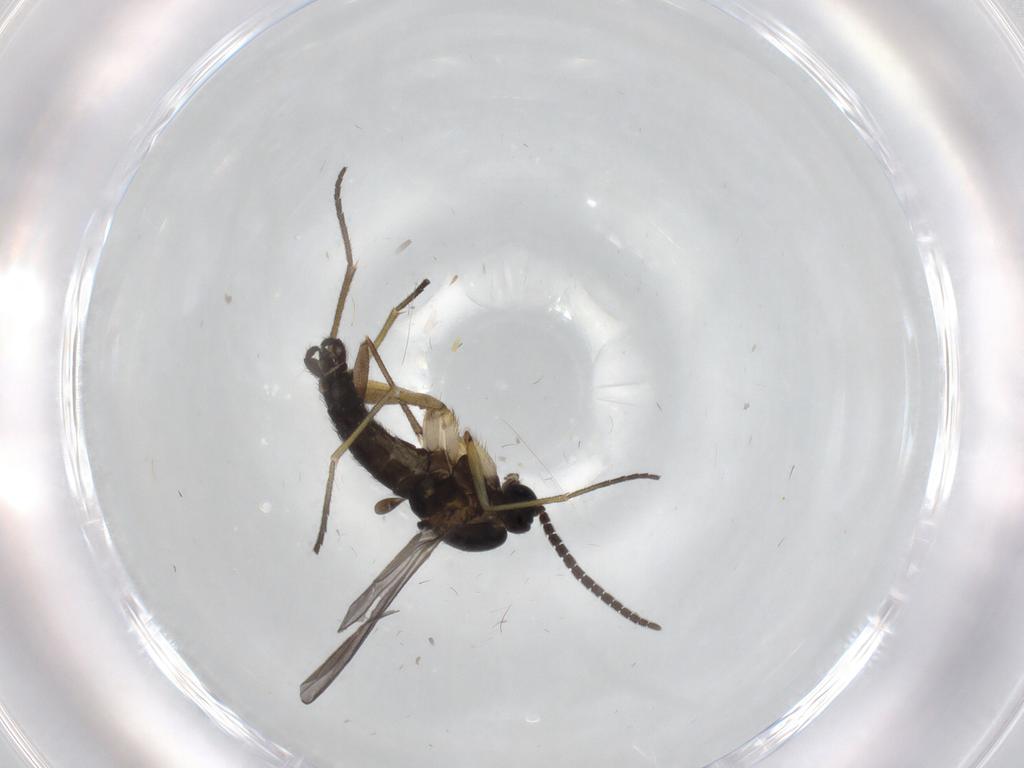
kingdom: Animalia
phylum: Arthropoda
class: Insecta
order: Diptera
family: Sciaridae
